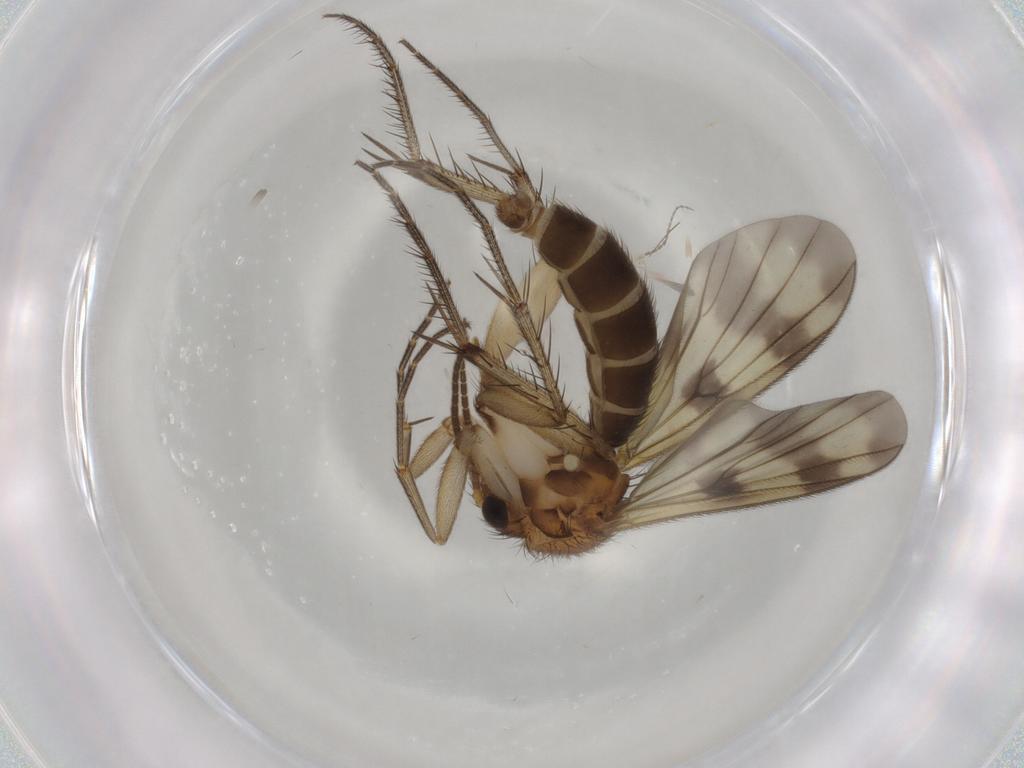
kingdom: Animalia
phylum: Arthropoda
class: Insecta
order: Diptera
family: Mycetophilidae
